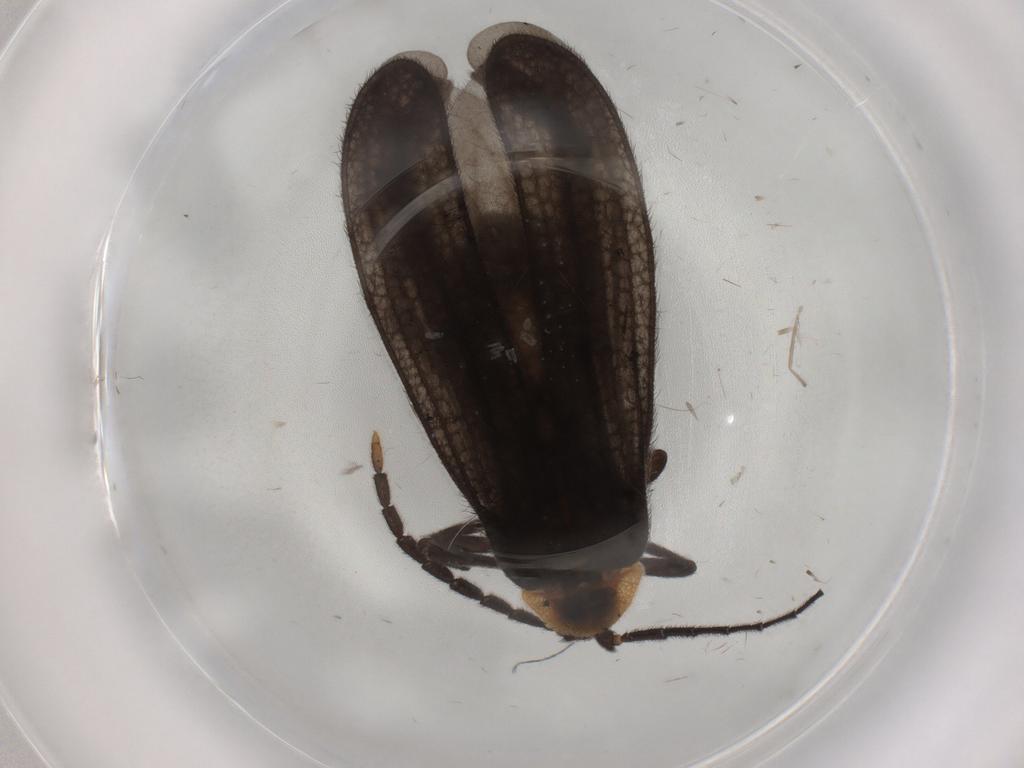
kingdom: Animalia
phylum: Arthropoda
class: Insecta
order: Coleoptera
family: Lycidae
